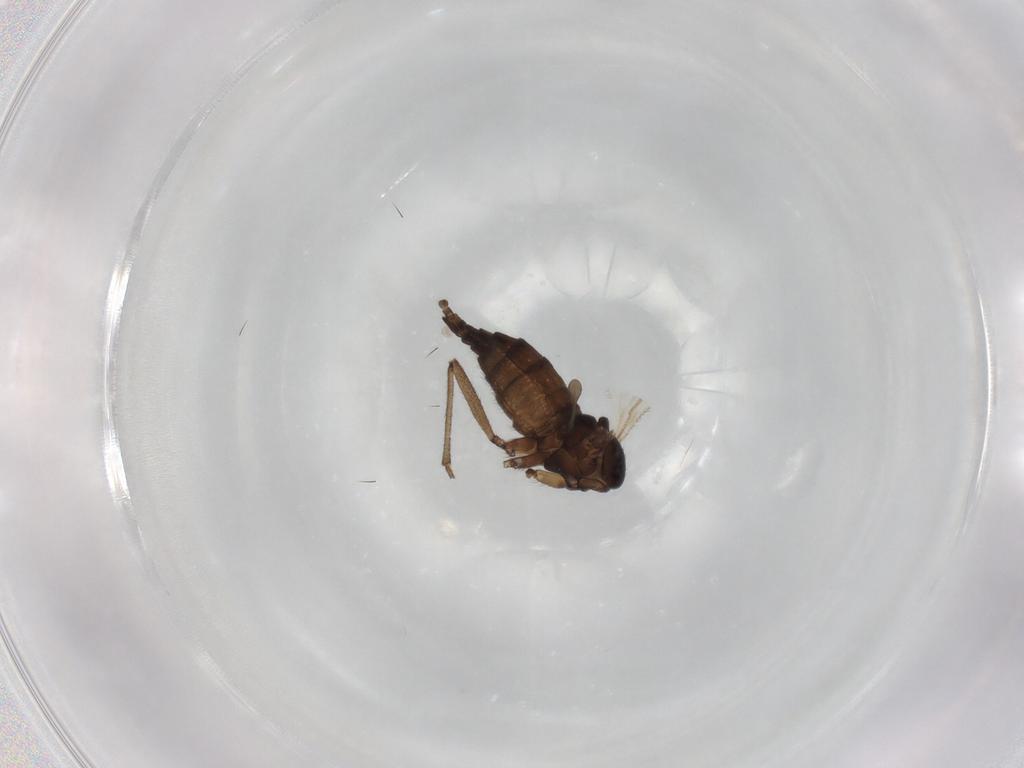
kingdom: Animalia
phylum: Arthropoda
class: Insecta
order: Diptera
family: Sciaridae
